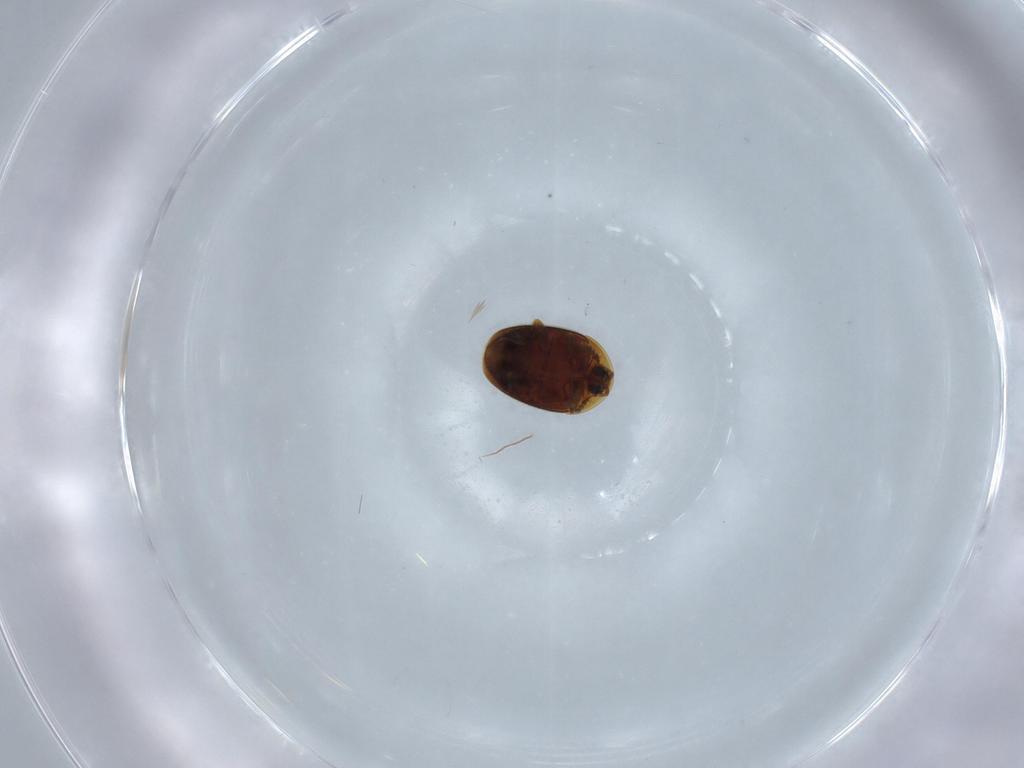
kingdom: Animalia
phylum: Arthropoda
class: Insecta
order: Coleoptera
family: Corylophidae
